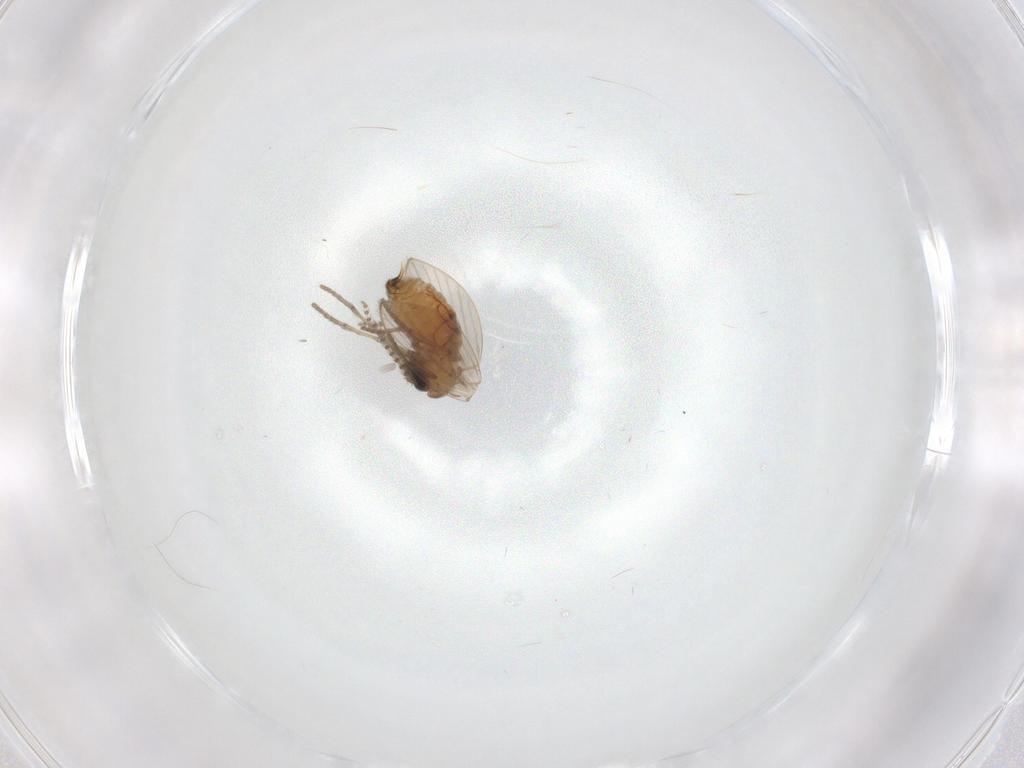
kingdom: Animalia
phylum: Arthropoda
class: Insecta
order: Diptera
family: Psychodidae
